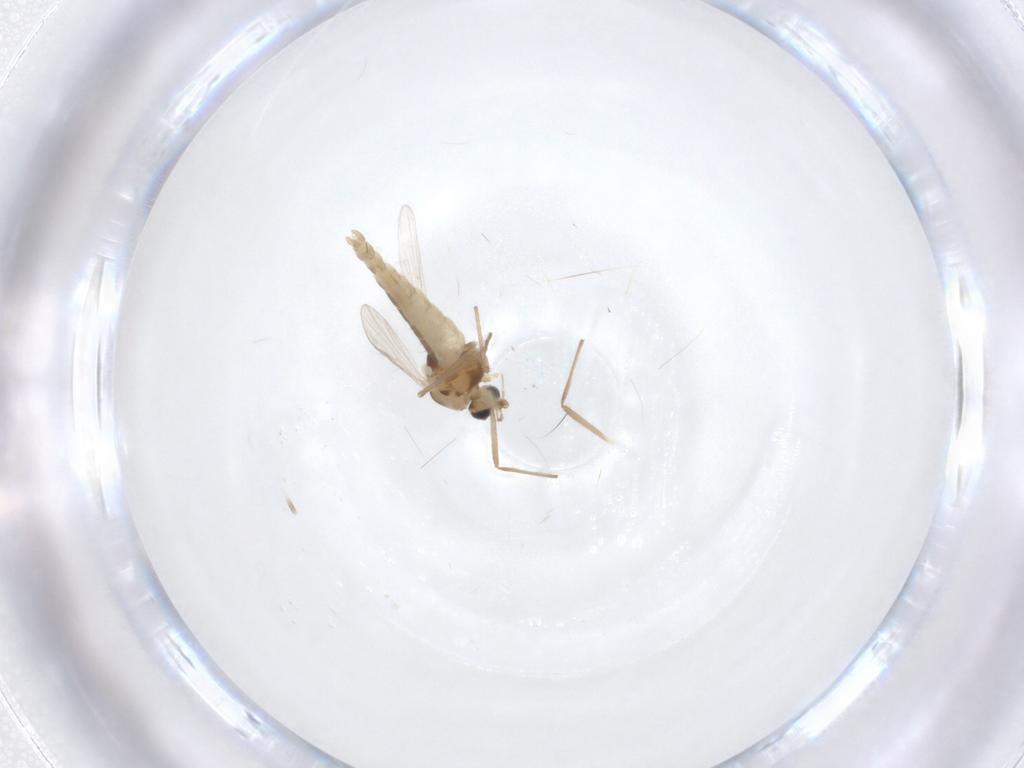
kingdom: Animalia
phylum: Arthropoda
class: Insecta
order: Diptera
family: Chironomidae
